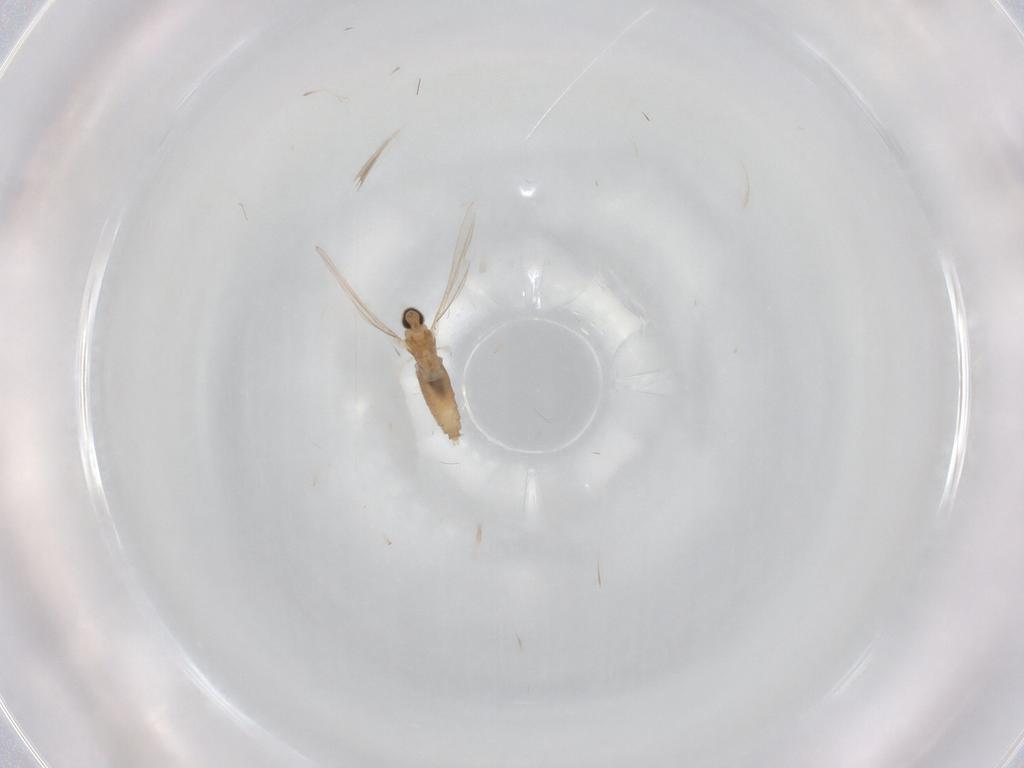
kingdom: Animalia
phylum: Arthropoda
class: Insecta
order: Diptera
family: Cecidomyiidae
